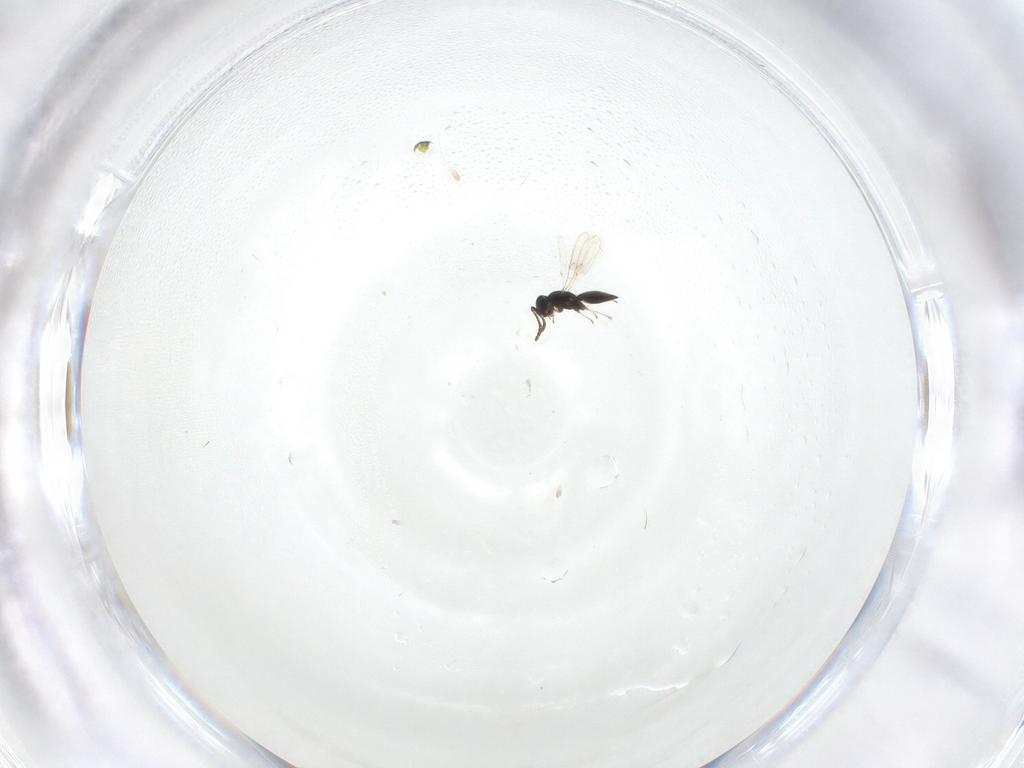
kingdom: Animalia
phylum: Arthropoda
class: Insecta
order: Hymenoptera
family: Scelionidae
